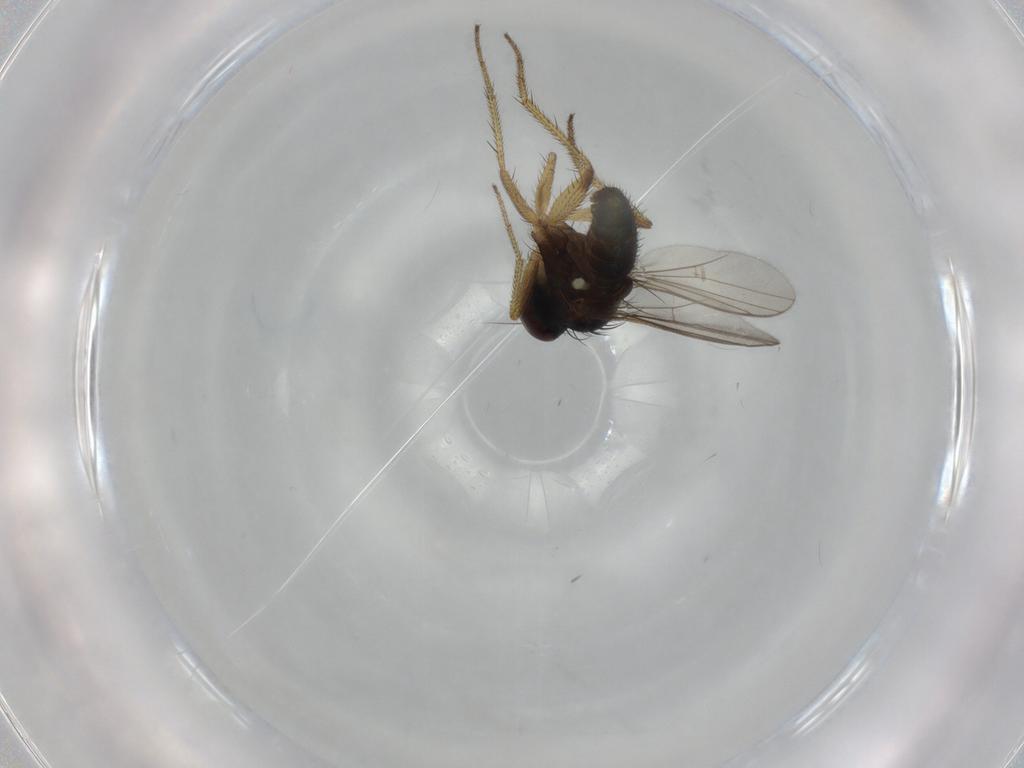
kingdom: Animalia
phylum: Arthropoda
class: Insecta
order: Diptera
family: Dolichopodidae
